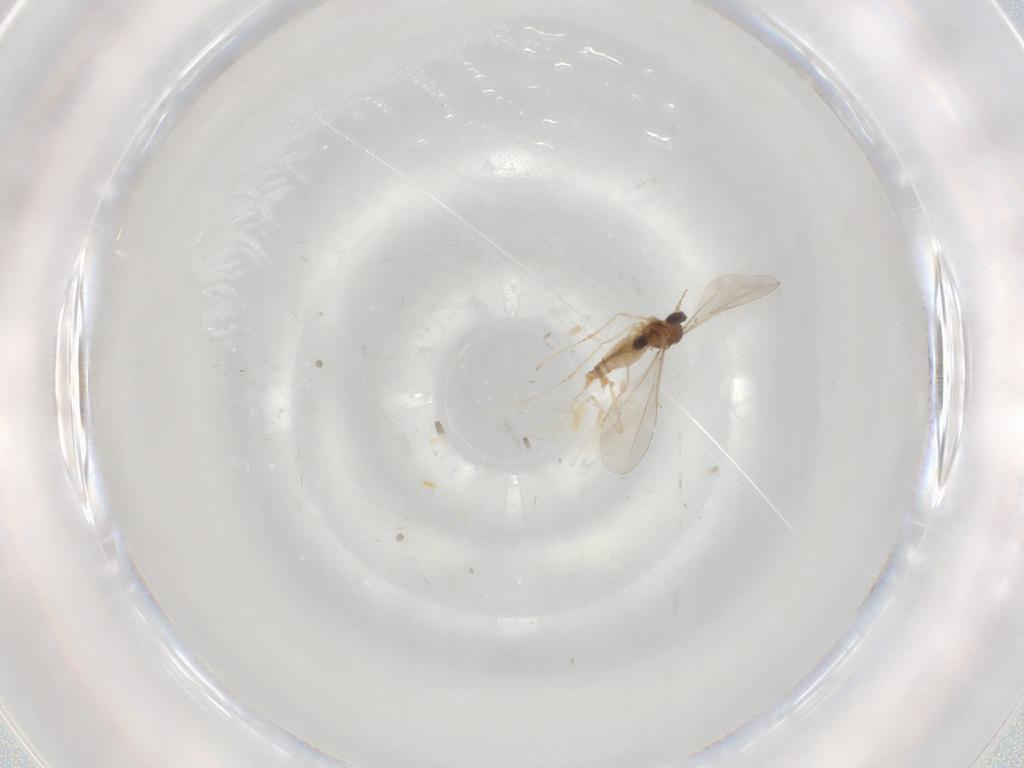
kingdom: Animalia
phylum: Arthropoda
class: Insecta
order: Diptera
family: Cecidomyiidae
